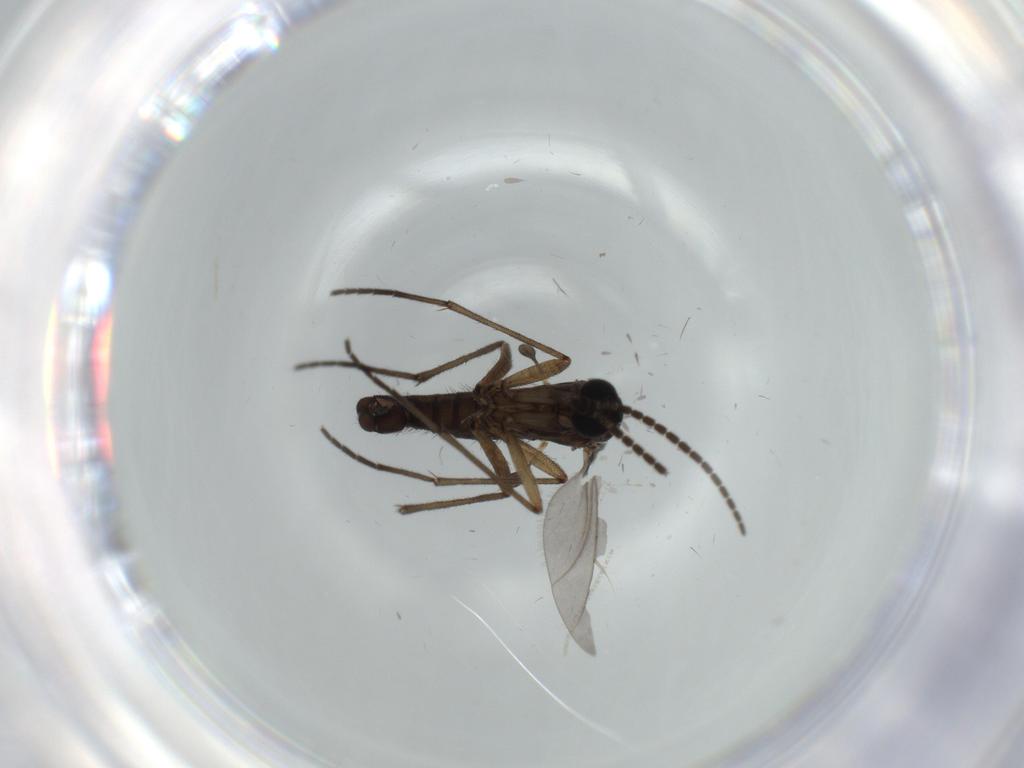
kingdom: Animalia
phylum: Arthropoda
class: Insecta
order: Diptera
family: Sciaridae
